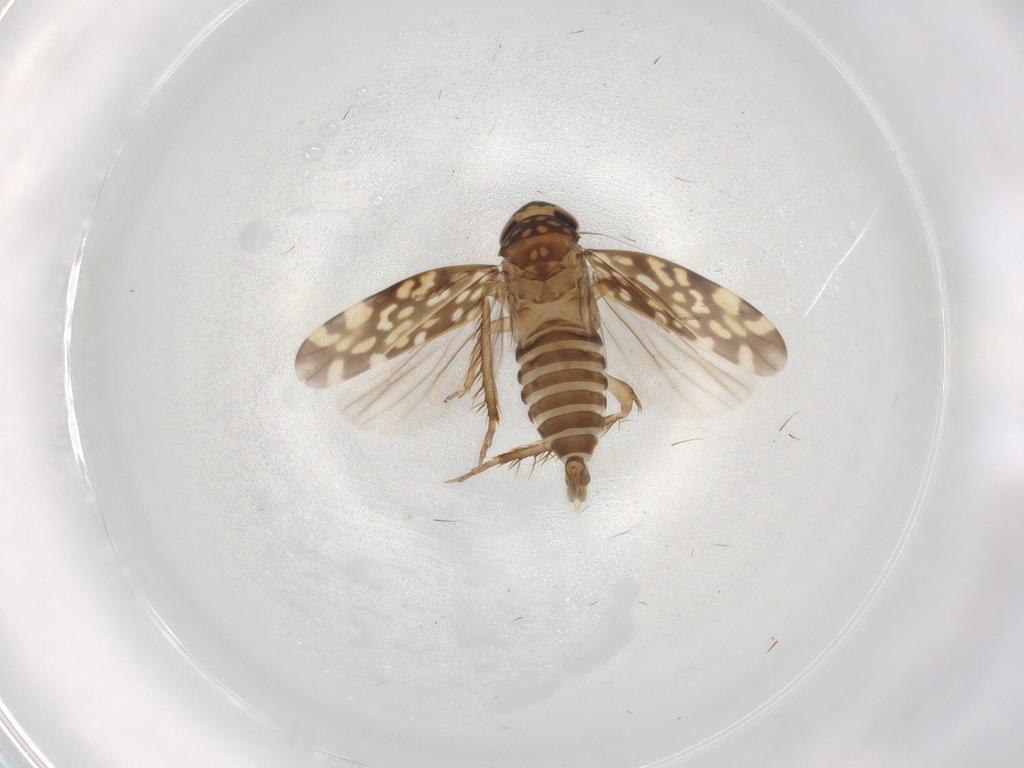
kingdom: Animalia
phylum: Arthropoda
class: Insecta
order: Hemiptera
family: Cicadellidae
